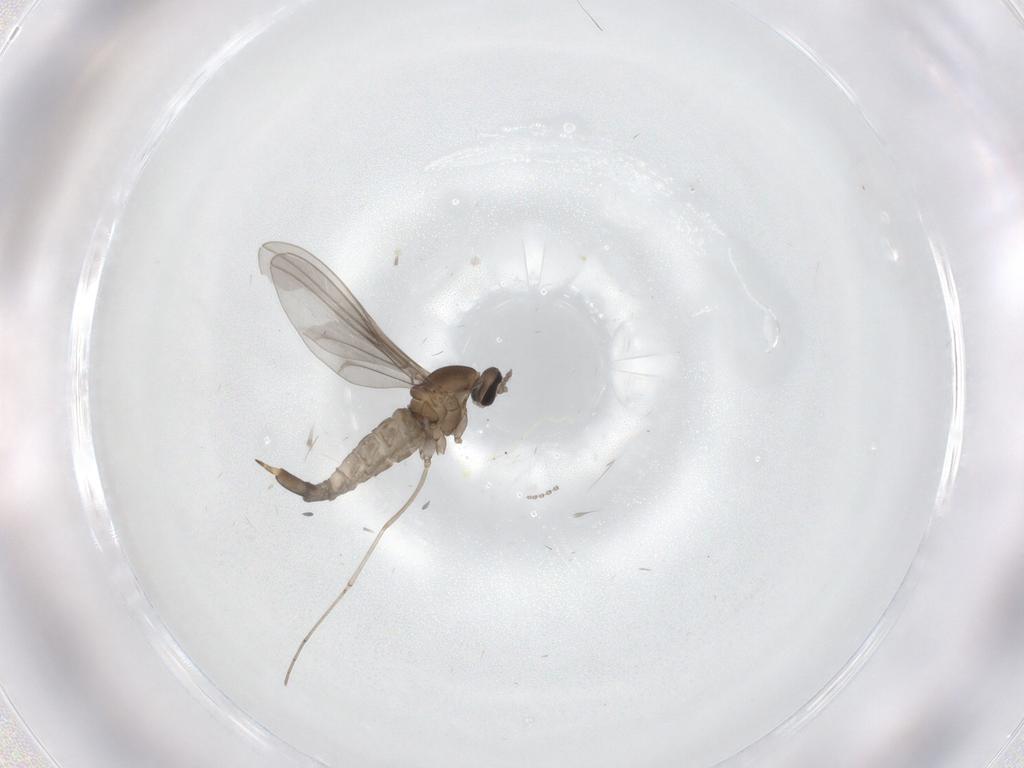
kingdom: Animalia
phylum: Arthropoda
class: Insecta
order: Diptera
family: Cecidomyiidae
